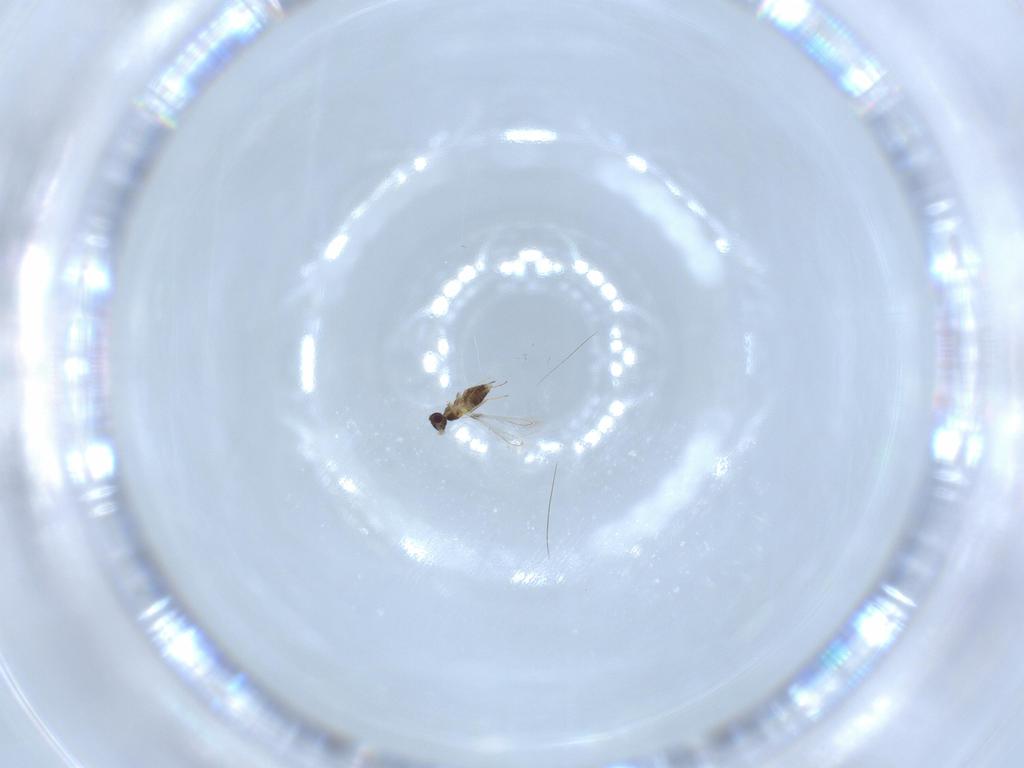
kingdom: Animalia
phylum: Arthropoda
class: Insecta
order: Hymenoptera
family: Mymaridae
